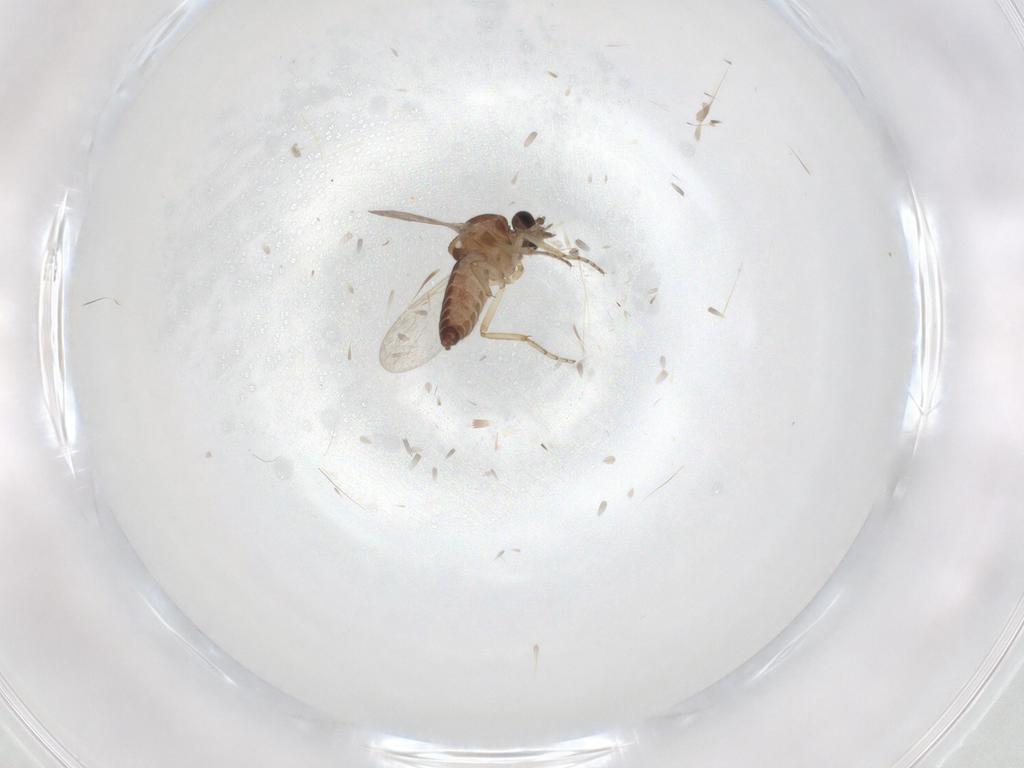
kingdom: Animalia
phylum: Arthropoda
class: Insecta
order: Diptera
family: Ceratopogonidae
